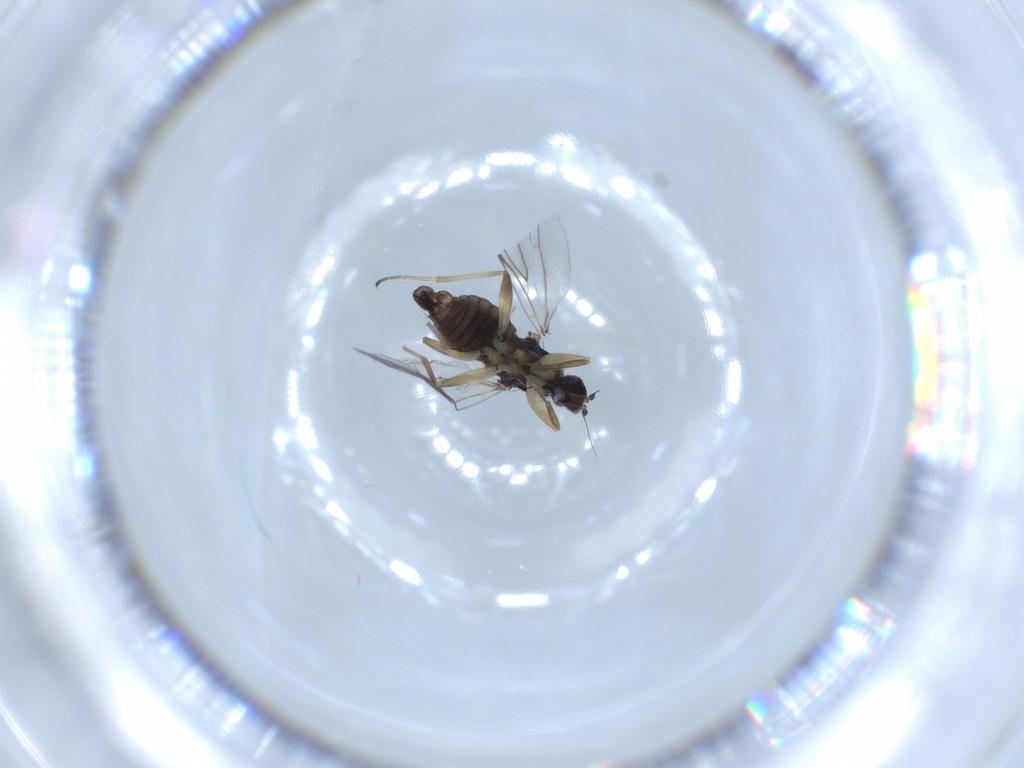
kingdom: Animalia
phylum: Arthropoda
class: Insecta
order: Diptera
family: Hybotidae
